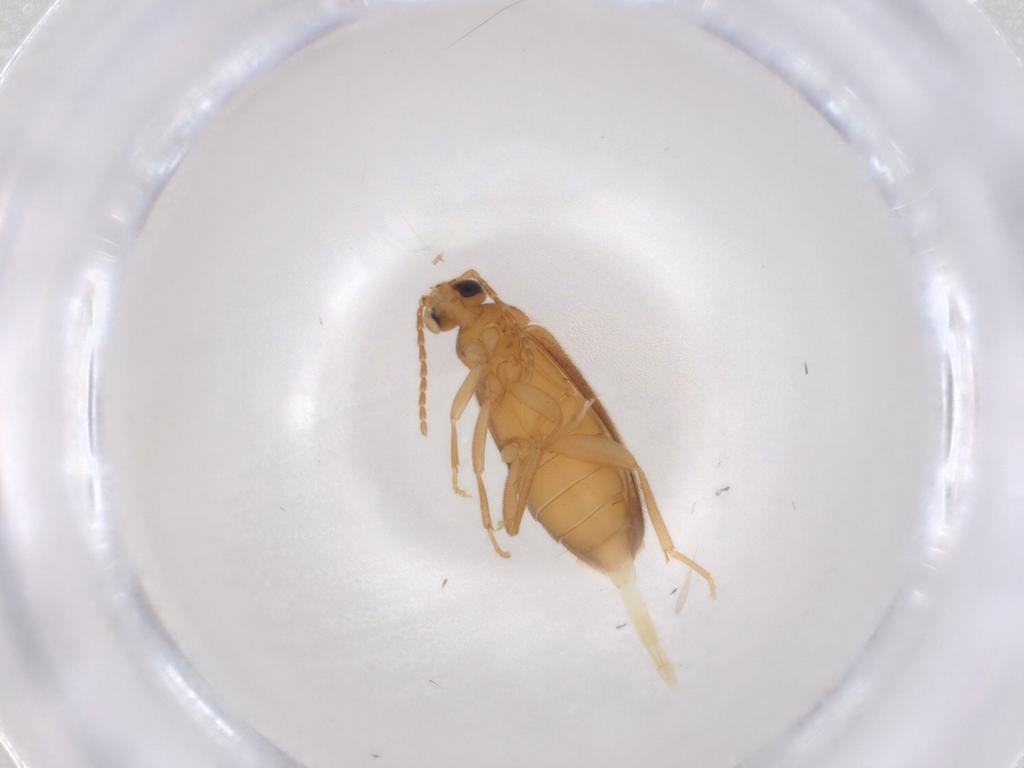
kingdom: Animalia
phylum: Arthropoda
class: Insecta
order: Coleoptera
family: Scraptiidae
